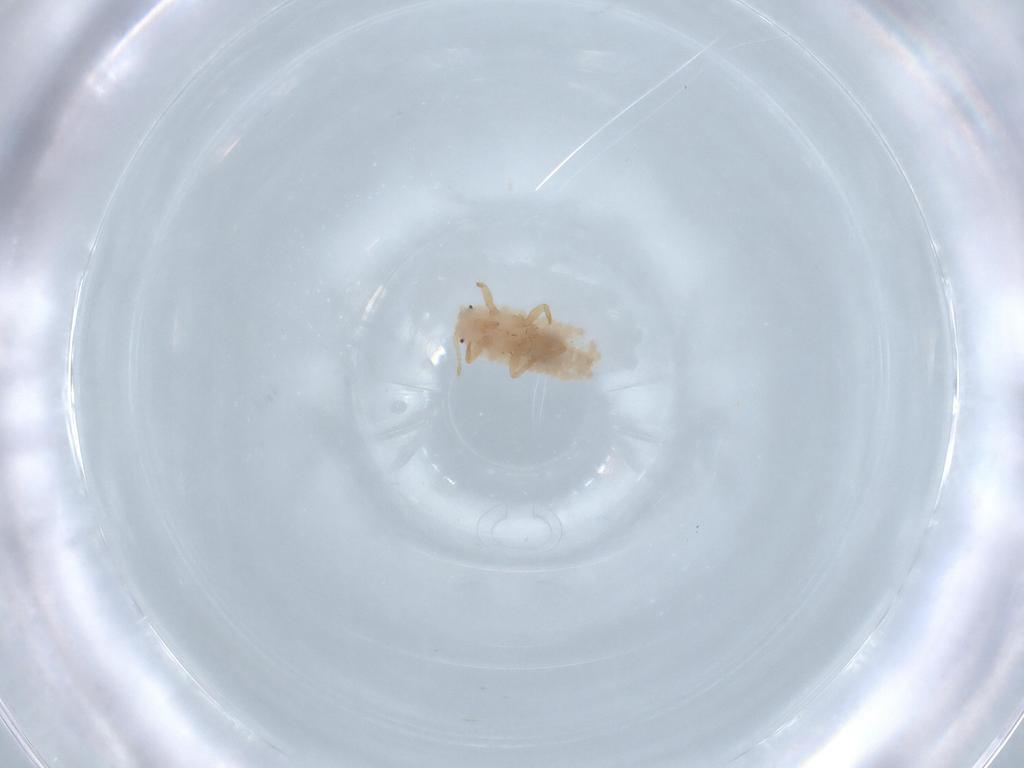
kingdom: Animalia
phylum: Arthropoda
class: Insecta
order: Hemiptera
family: Aleyrodidae
